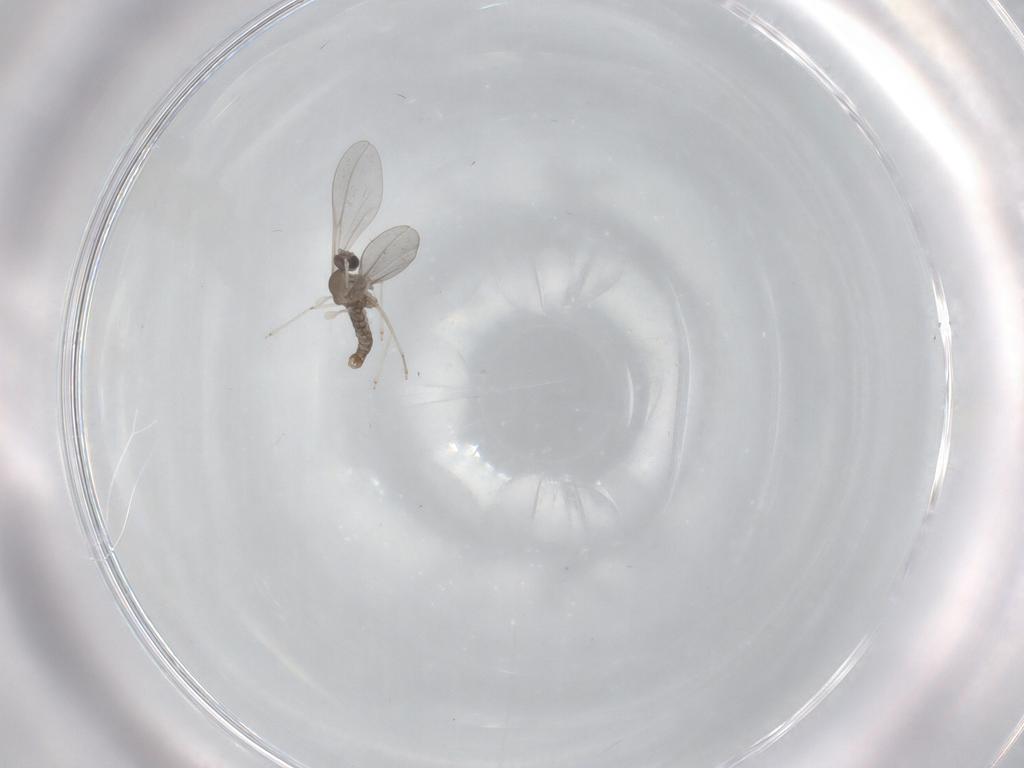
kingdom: Animalia
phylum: Arthropoda
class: Insecta
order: Diptera
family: Cecidomyiidae
